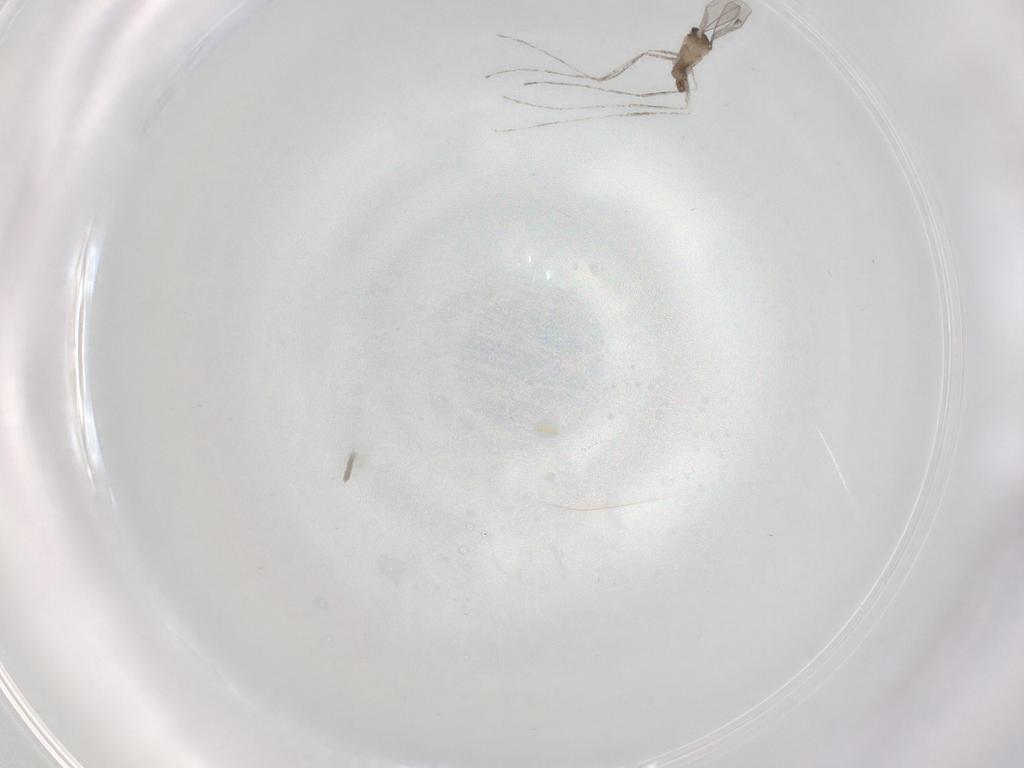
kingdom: Animalia
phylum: Arthropoda
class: Insecta
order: Diptera
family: Cecidomyiidae
